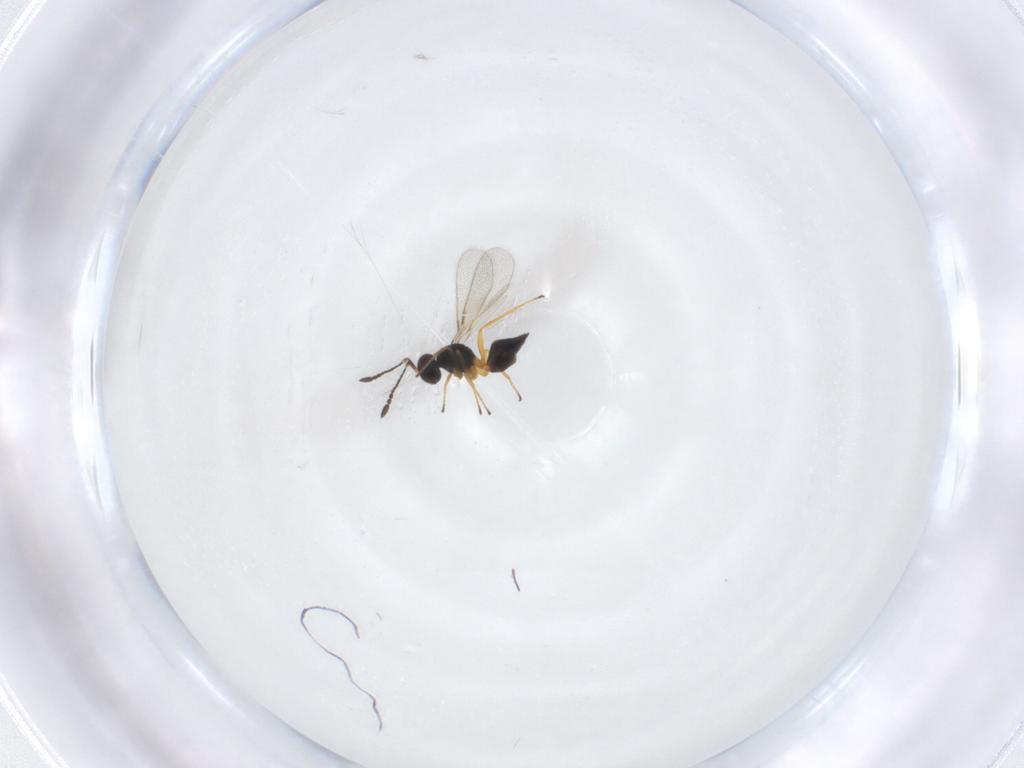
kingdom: Animalia
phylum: Arthropoda
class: Insecta
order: Hymenoptera
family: Mymaridae
